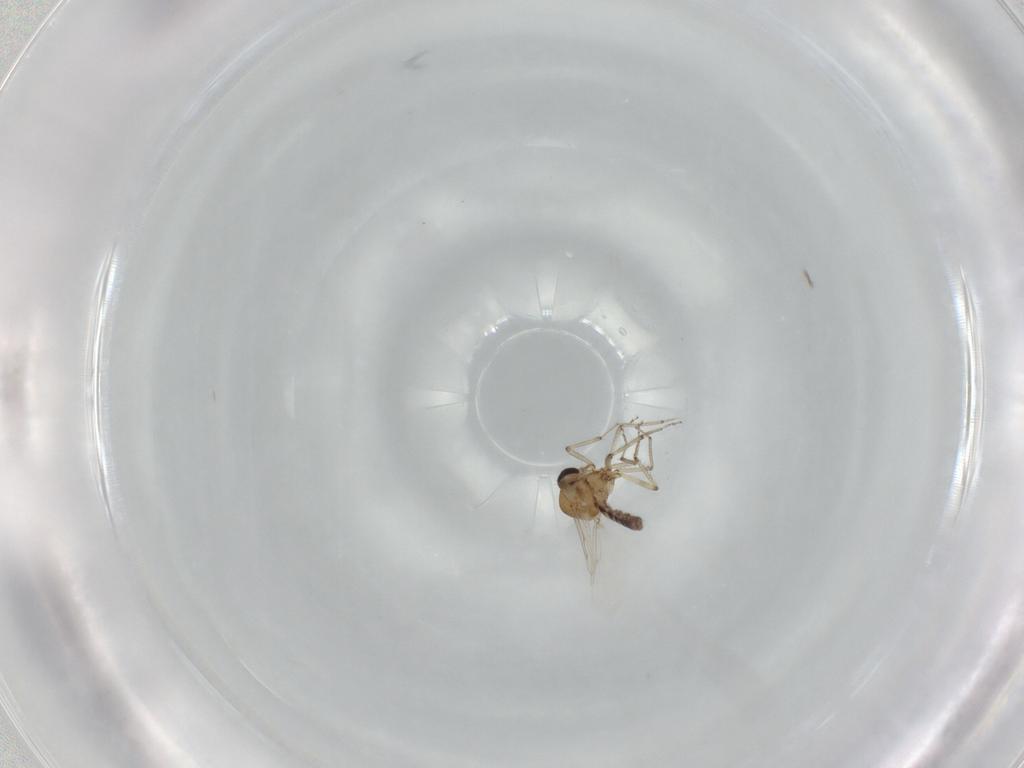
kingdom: Animalia
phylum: Arthropoda
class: Insecta
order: Diptera
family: Ceratopogonidae
